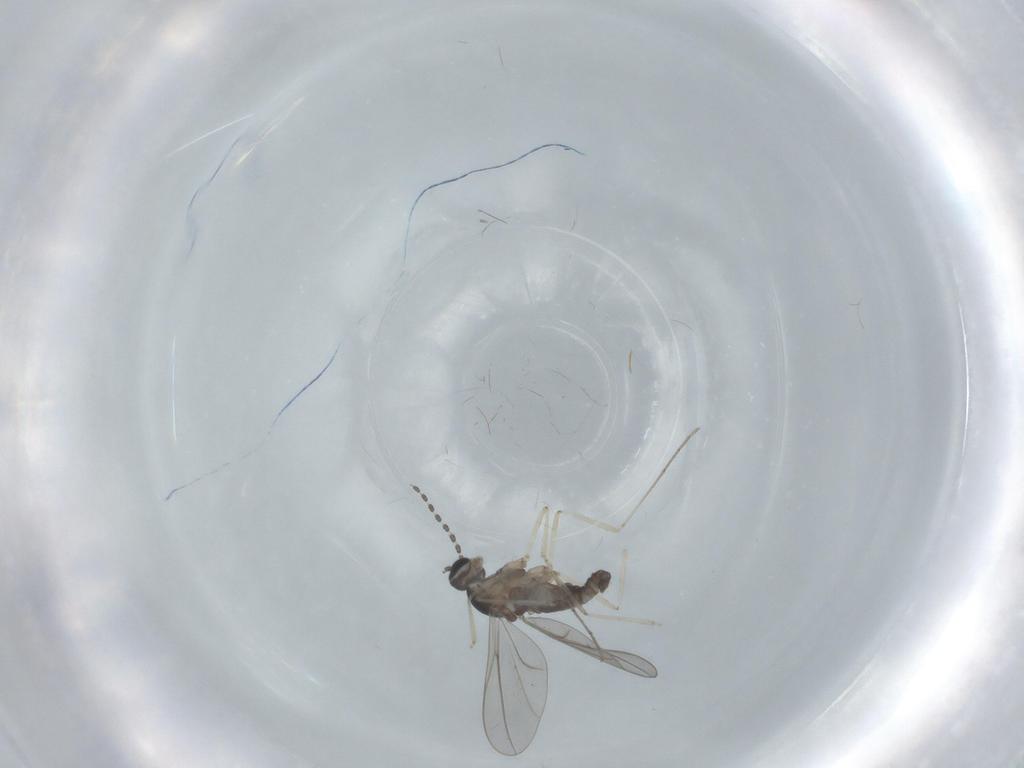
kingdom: Animalia
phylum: Arthropoda
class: Insecta
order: Diptera
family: Cecidomyiidae
